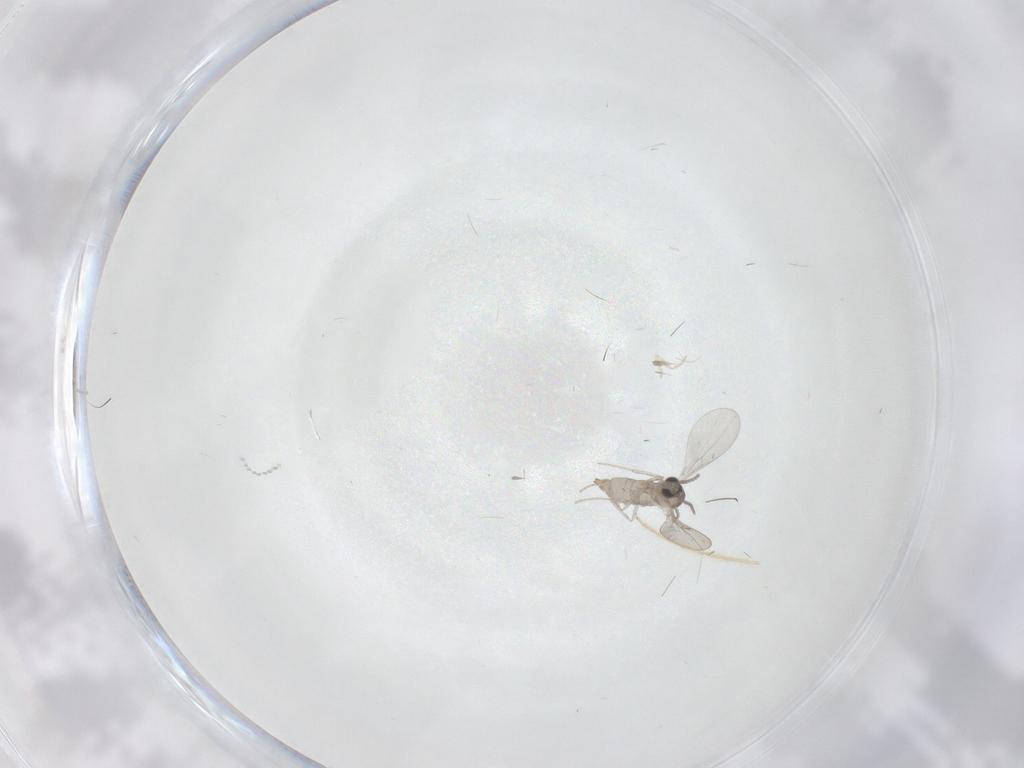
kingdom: Animalia
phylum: Arthropoda
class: Insecta
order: Diptera
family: Cecidomyiidae
